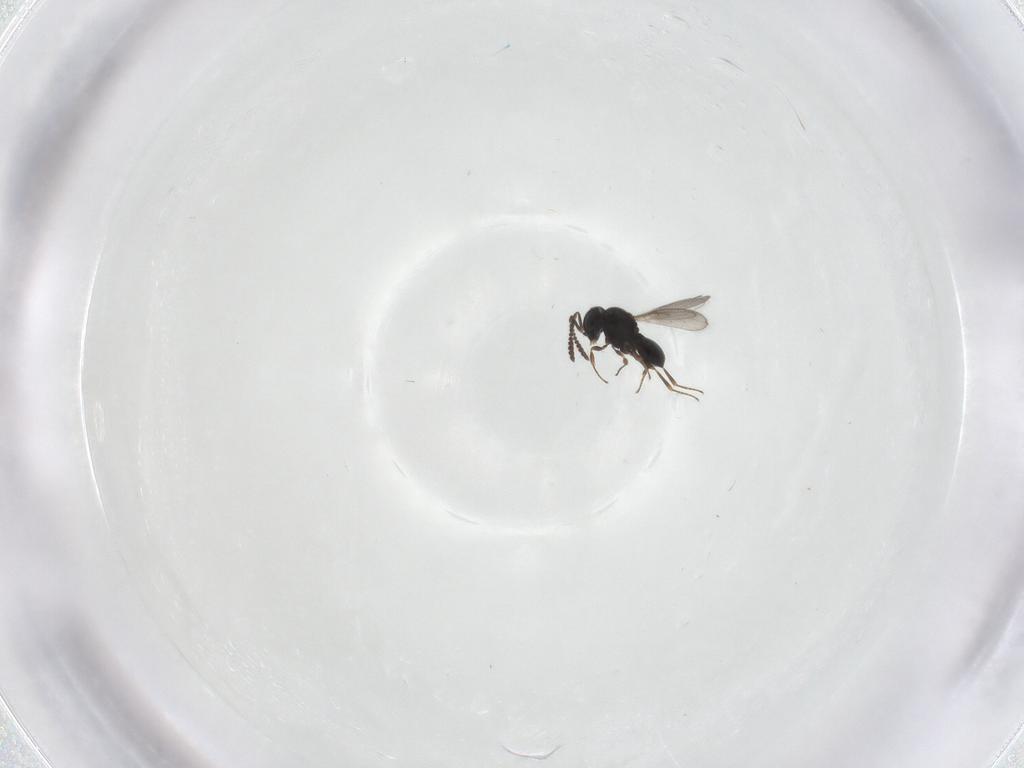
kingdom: Animalia
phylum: Arthropoda
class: Insecta
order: Hymenoptera
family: Scelionidae
